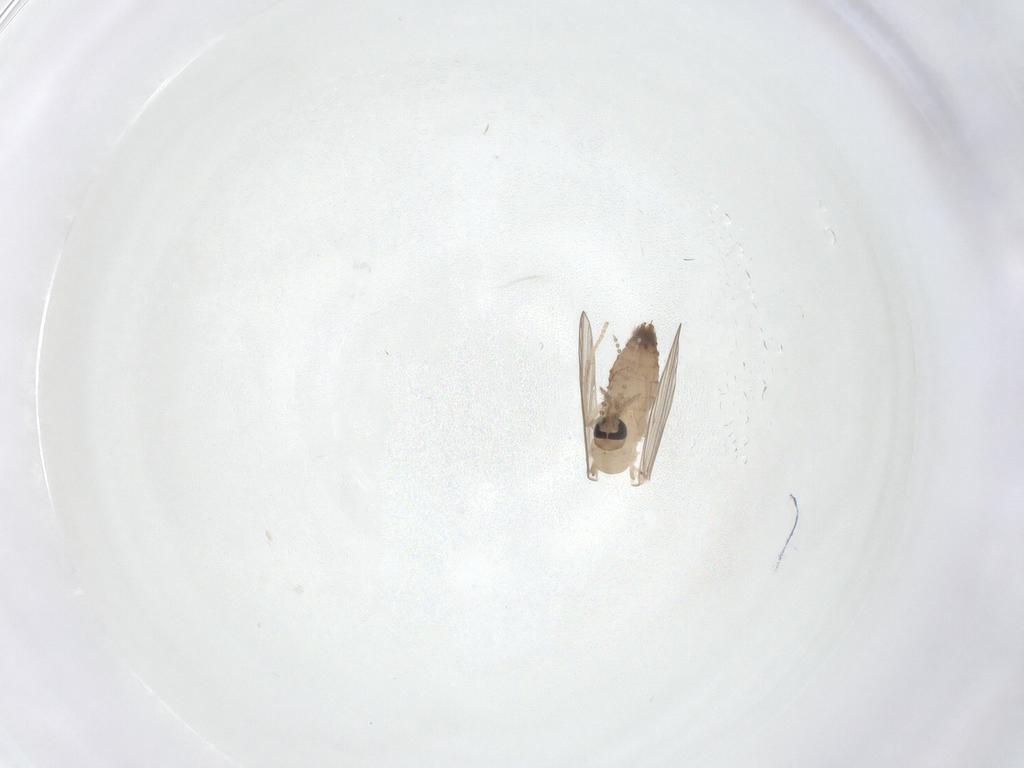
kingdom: Animalia
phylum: Arthropoda
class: Insecta
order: Diptera
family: Psychodidae
